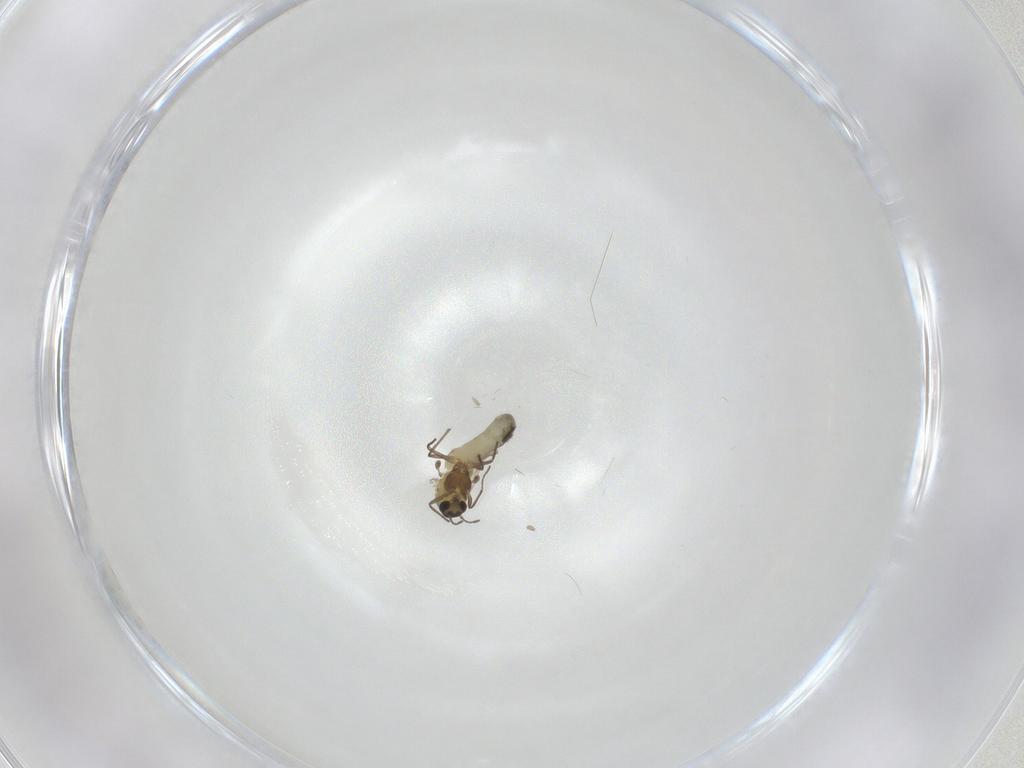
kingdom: Animalia
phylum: Arthropoda
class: Insecta
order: Diptera
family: Chironomidae
